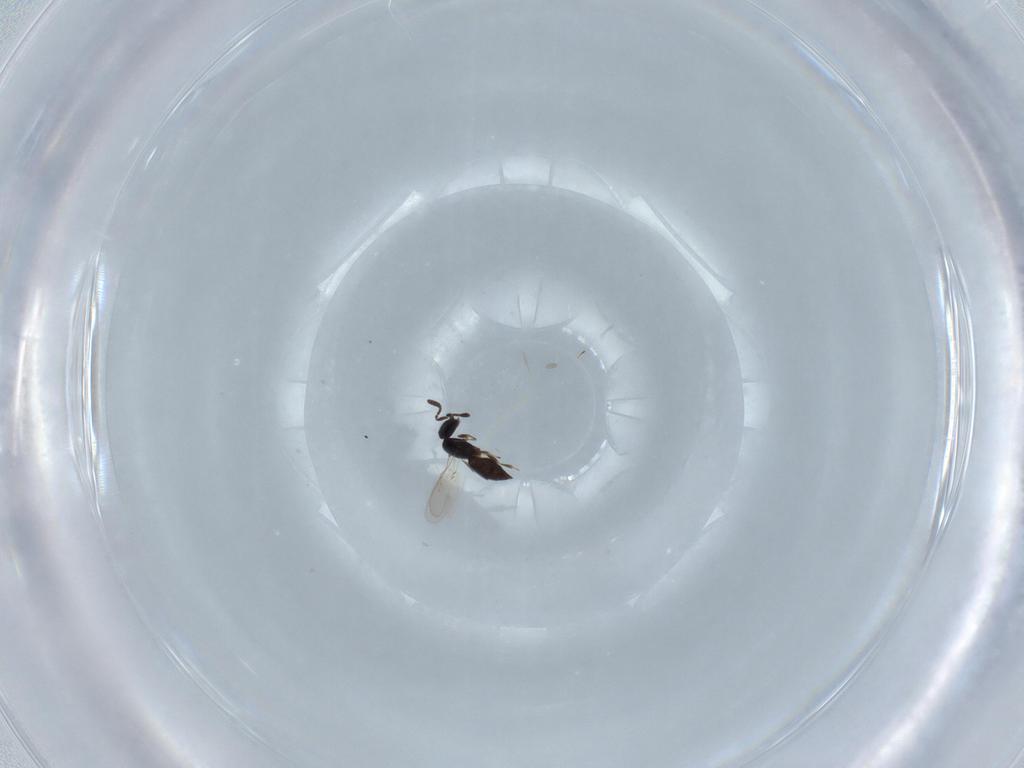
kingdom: Animalia
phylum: Arthropoda
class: Insecta
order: Hymenoptera
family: Scelionidae
